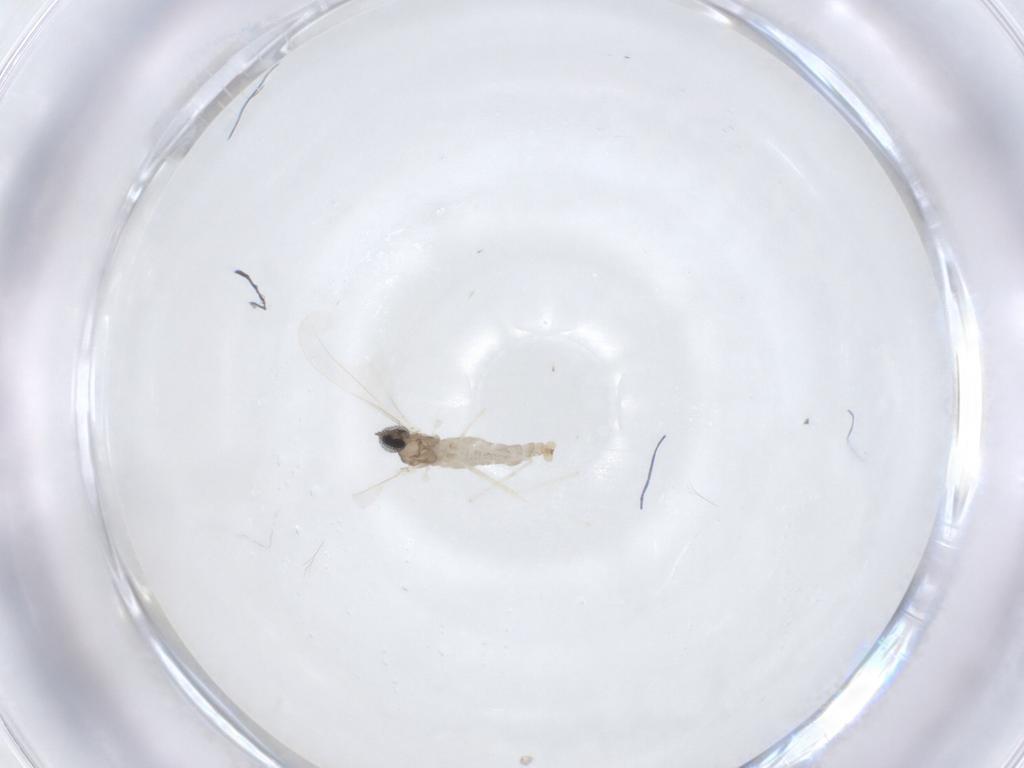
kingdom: Animalia
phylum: Arthropoda
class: Insecta
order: Diptera
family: Cecidomyiidae
